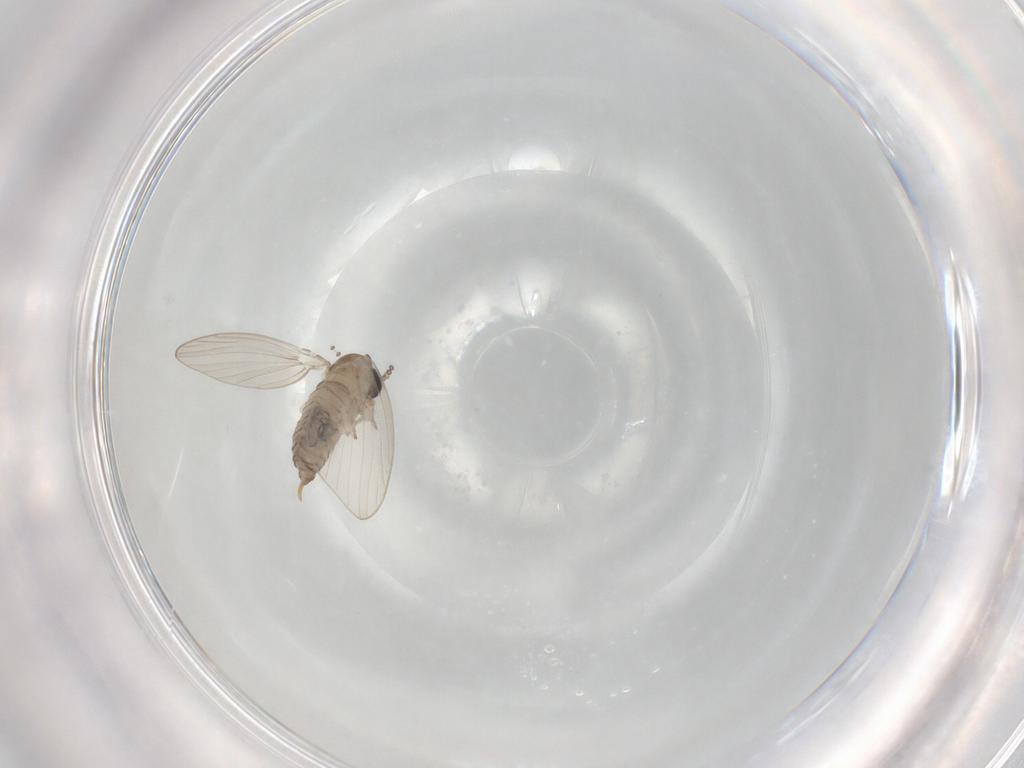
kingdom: Animalia
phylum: Arthropoda
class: Insecta
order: Diptera
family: Psychodidae
